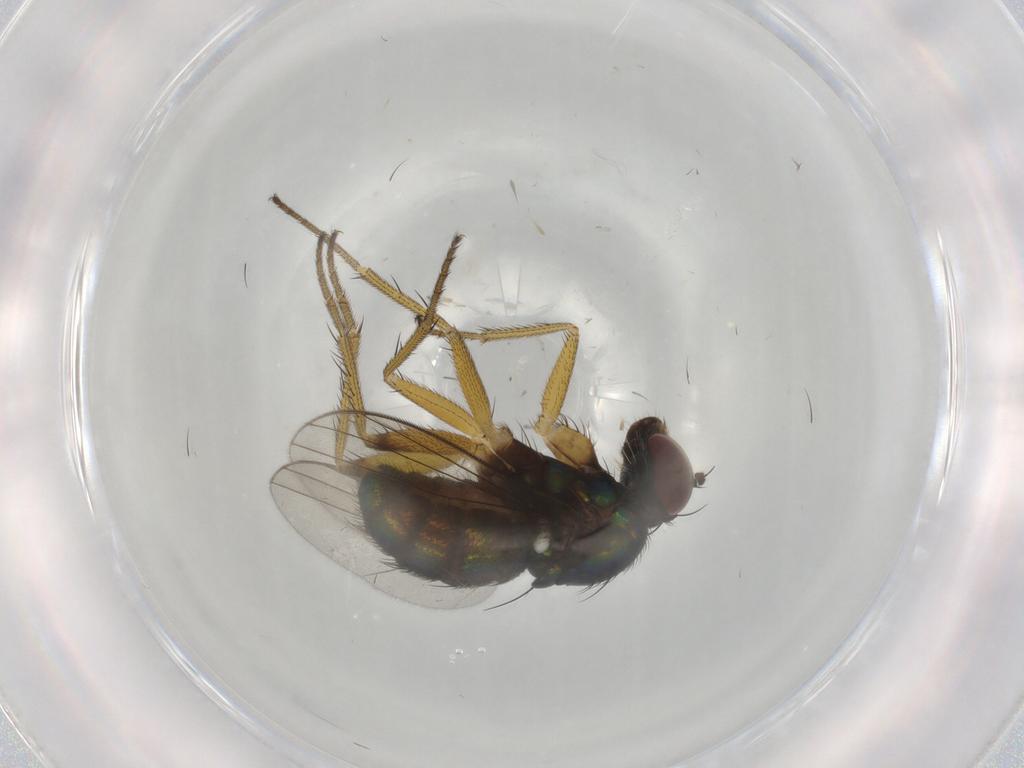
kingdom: Animalia
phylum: Arthropoda
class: Insecta
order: Diptera
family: Dolichopodidae
